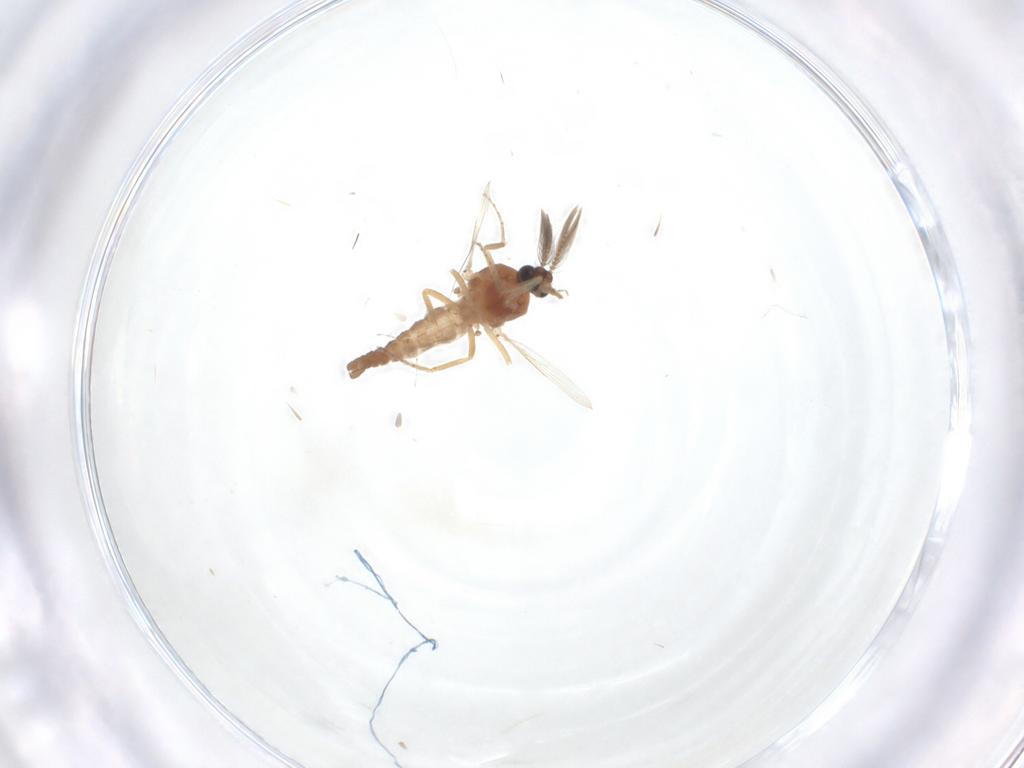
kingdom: Animalia
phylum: Arthropoda
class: Insecta
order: Diptera
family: Ceratopogonidae
